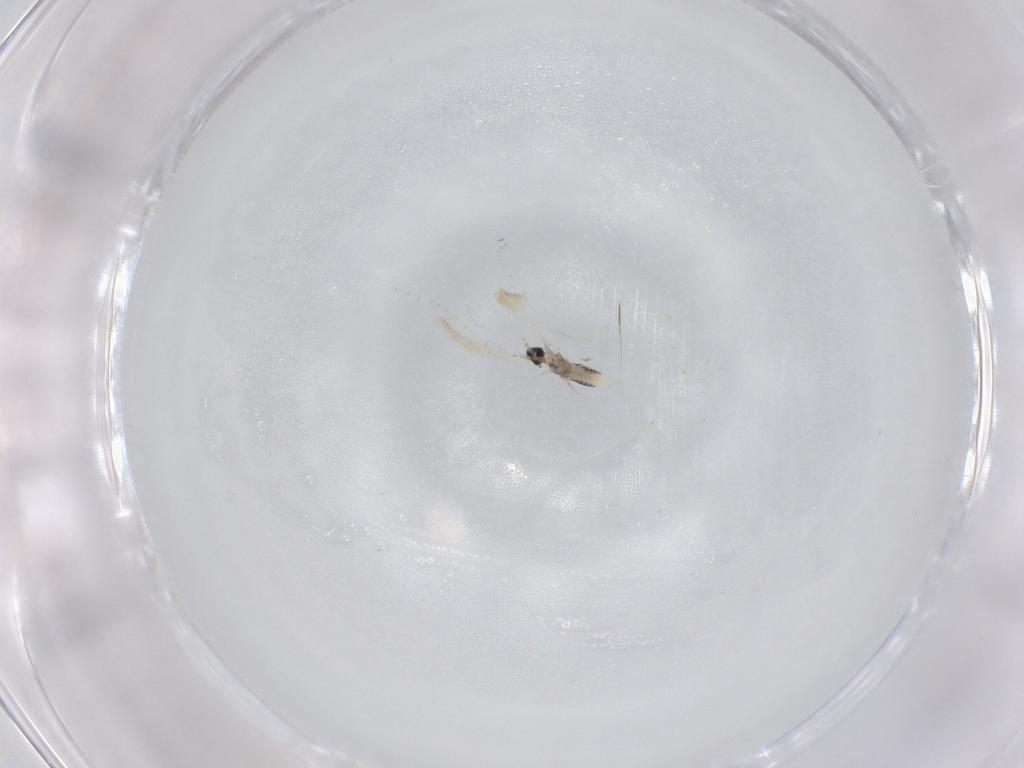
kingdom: Animalia
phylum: Arthropoda
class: Insecta
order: Diptera
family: Cecidomyiidae
